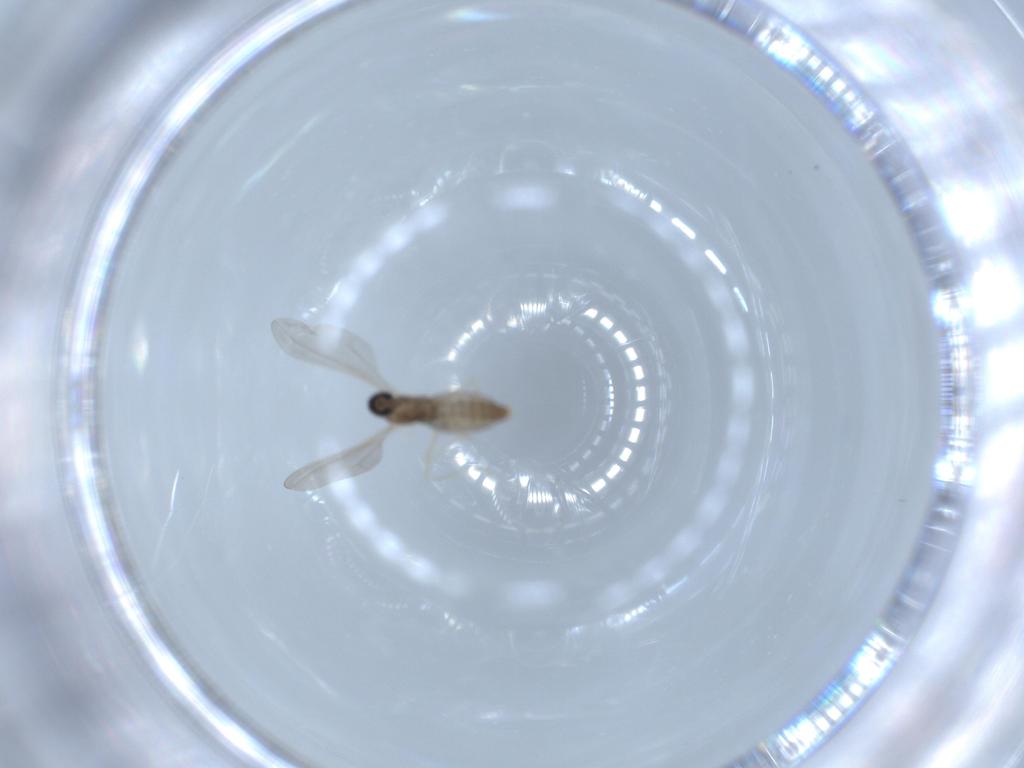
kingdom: Animalia
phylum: Arthropoda
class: Insecta
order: Diptera
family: Cecidomyiidae
